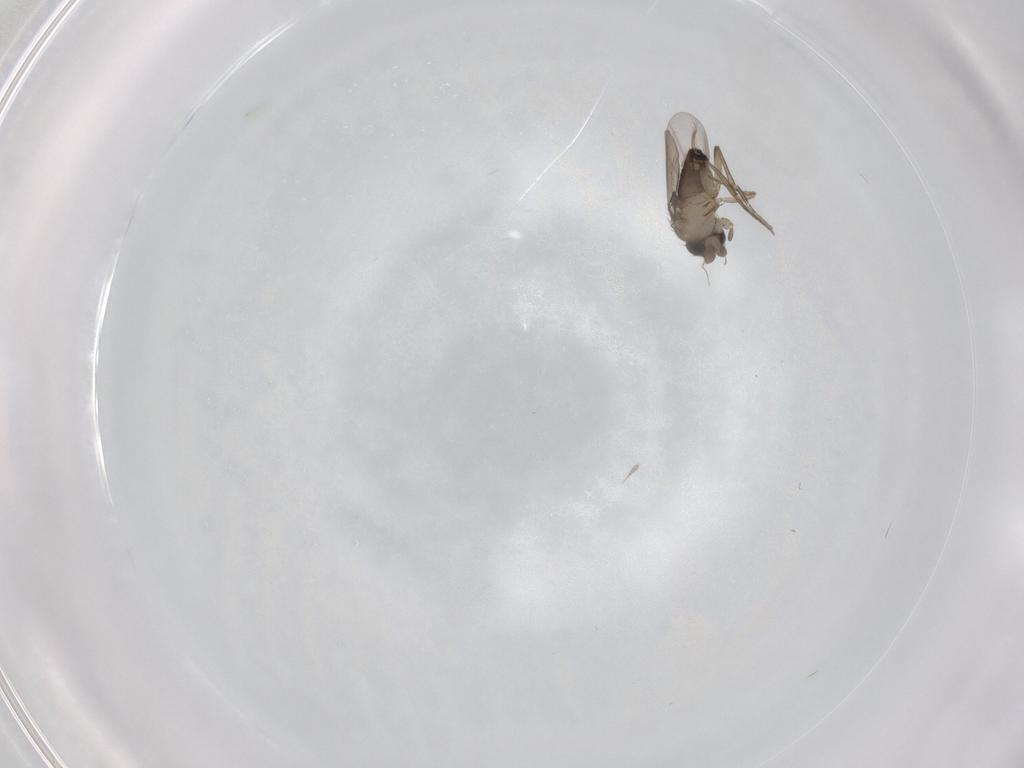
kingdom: Animalia
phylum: Arthropoda
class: Insecta
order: Diptera
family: Phoridae
